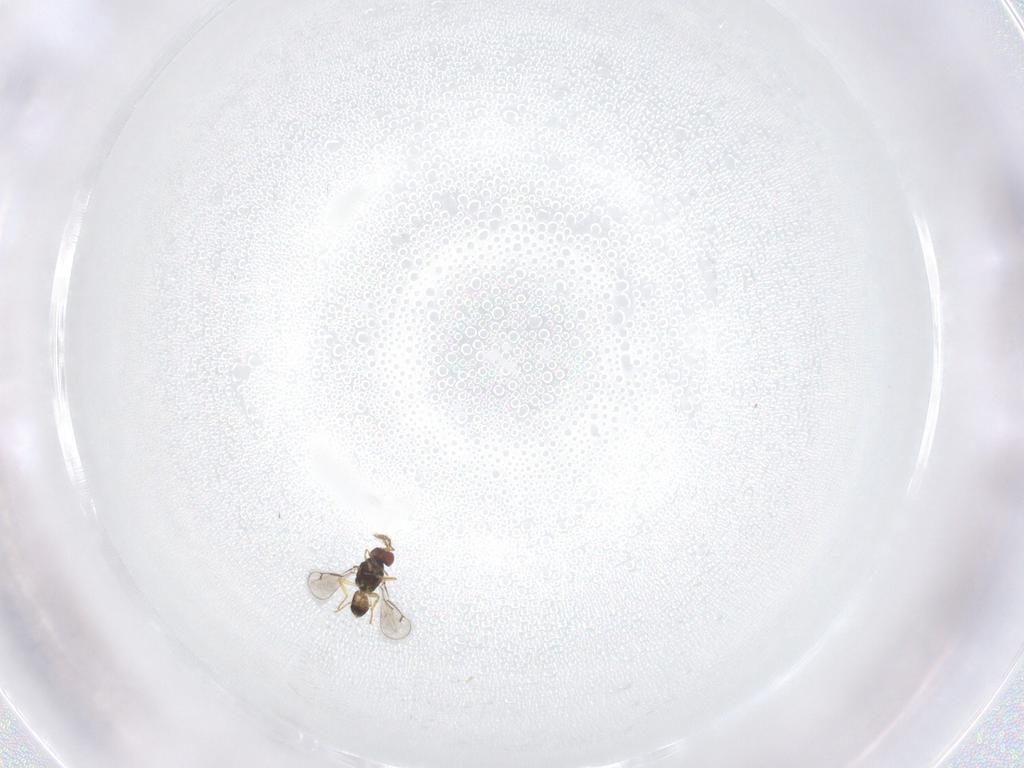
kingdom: Animalia
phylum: Arthropoda
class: Insecta
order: Hymenoptera
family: Eulophidae
